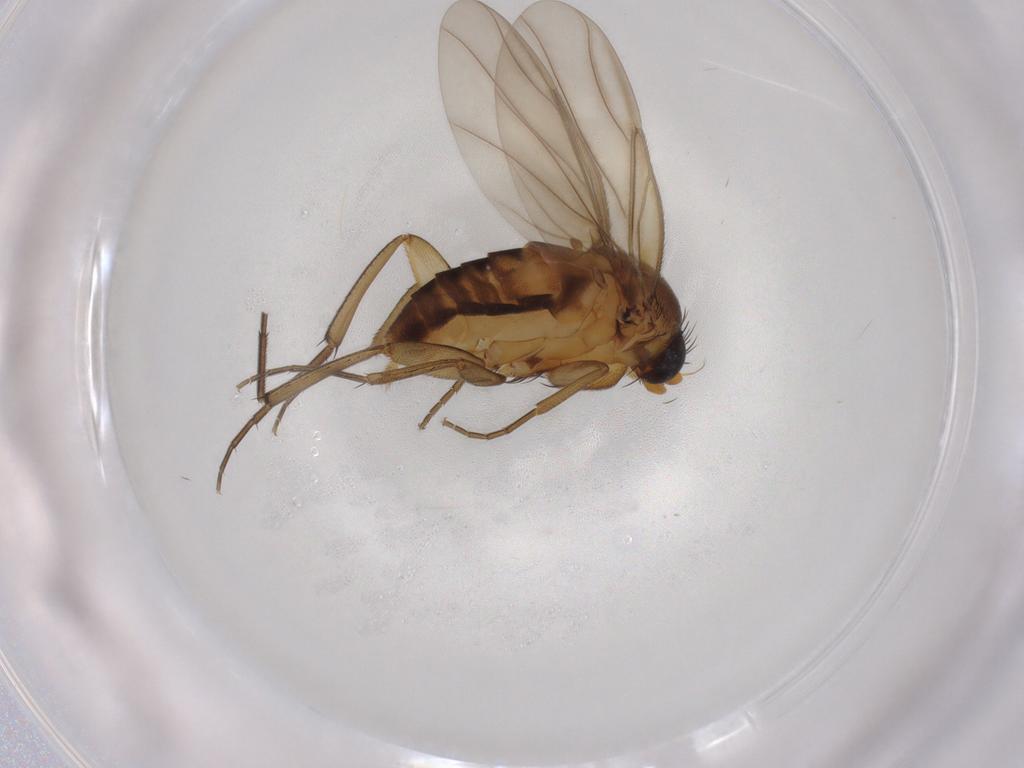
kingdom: Animalia
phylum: Arthropoda
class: Insecta
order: Diptera
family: Phoridae
